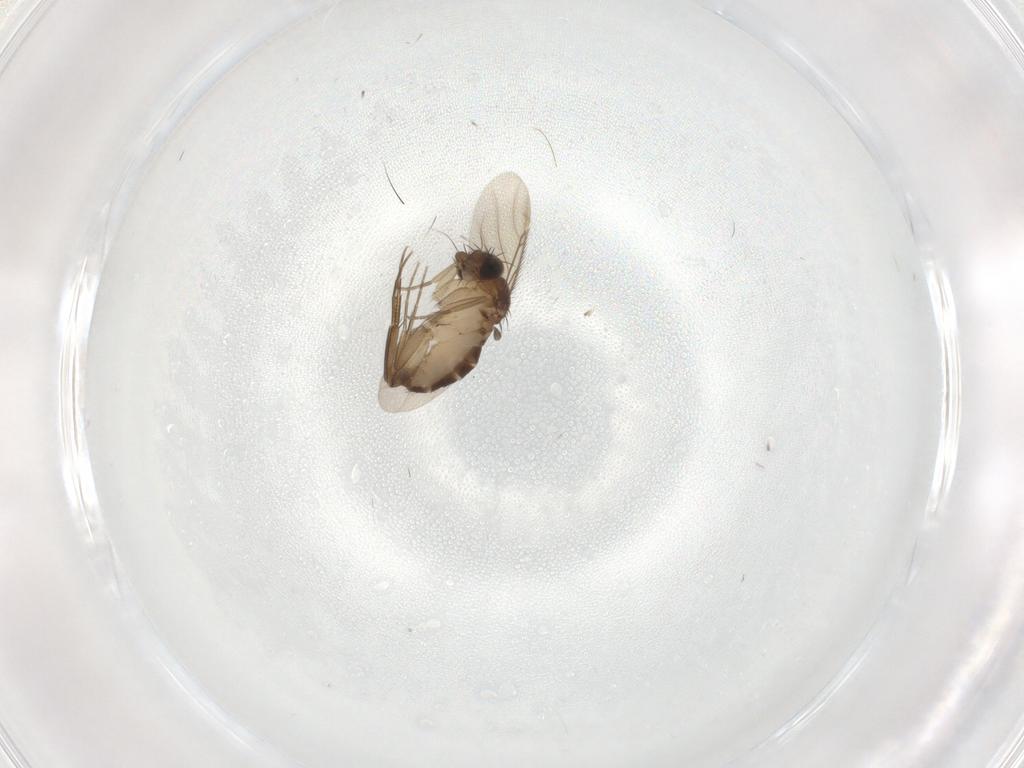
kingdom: Animalia
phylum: Arthropoda
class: Insecta
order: Diptera
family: Phoridae
